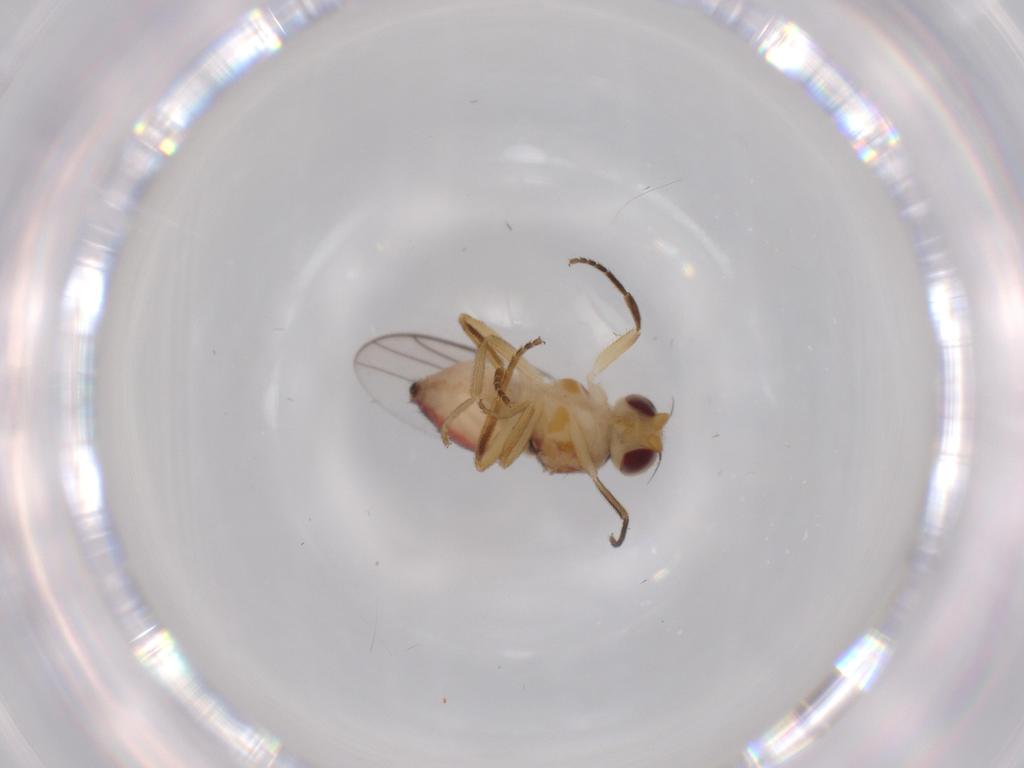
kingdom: Animalia
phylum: Arthropoda
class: Insecta
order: Diptera
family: Chloropidae
